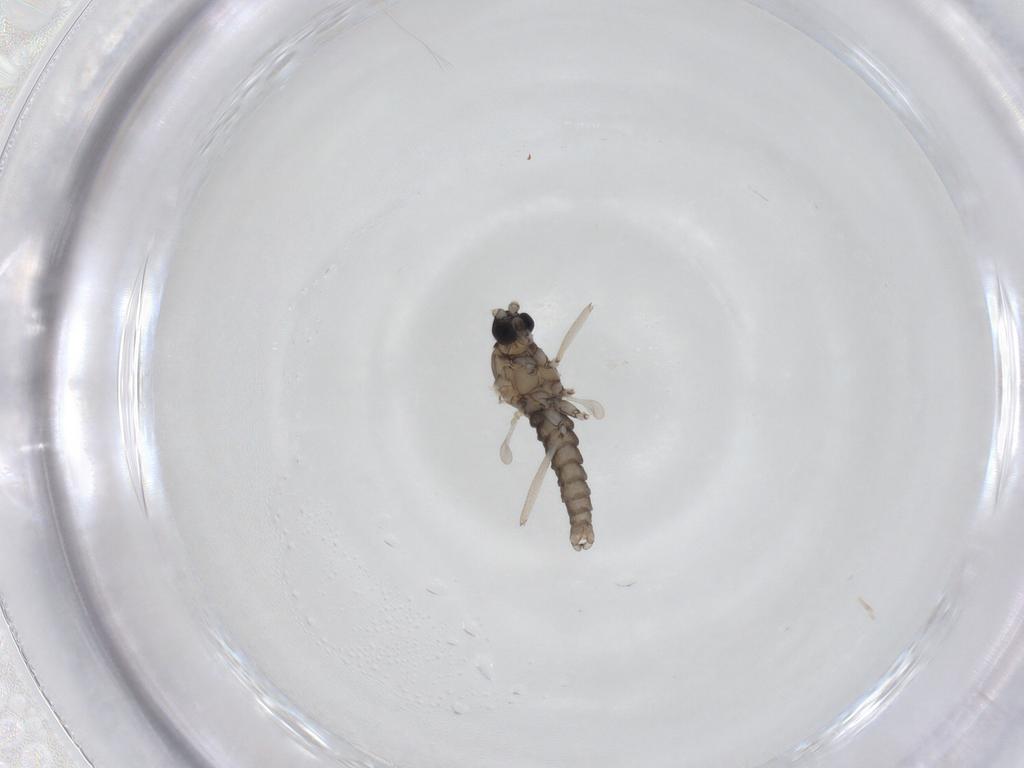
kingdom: Animalia
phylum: Arthropoda
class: Insecta
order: Diptera
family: Cecidomyiidae
